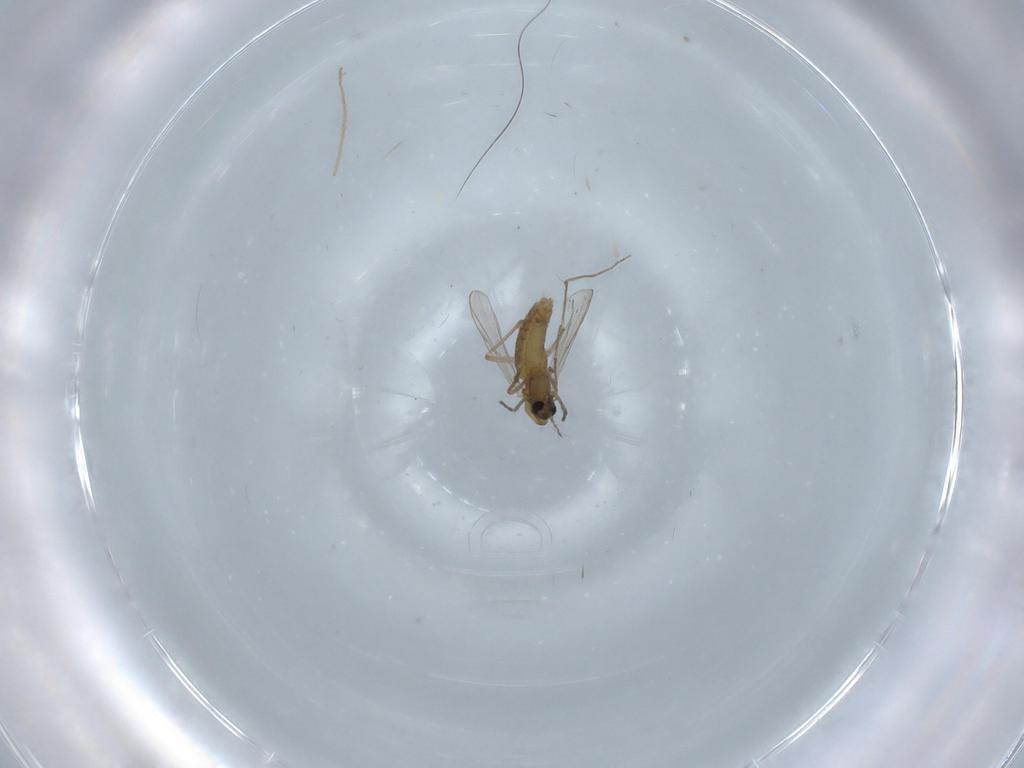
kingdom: Animalia
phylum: Arthropoda
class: Insecta
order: Diptera
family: Chironomidae
